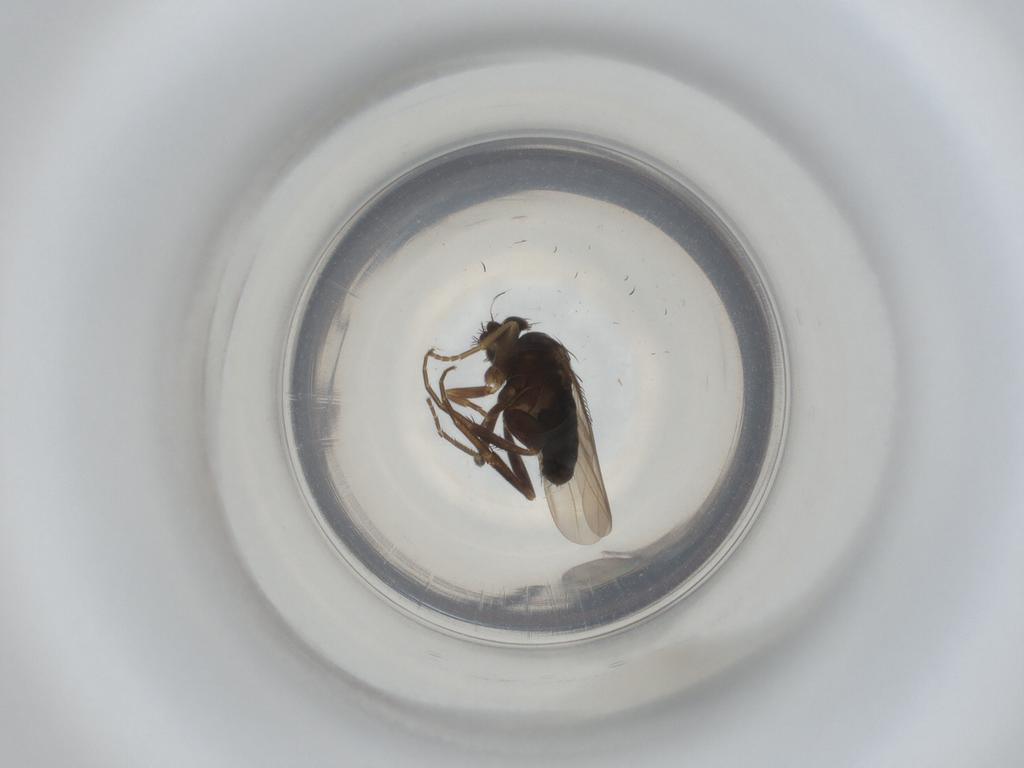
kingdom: Animalia
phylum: Arthropoda
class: Insecta
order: Diptera
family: Phoridae
